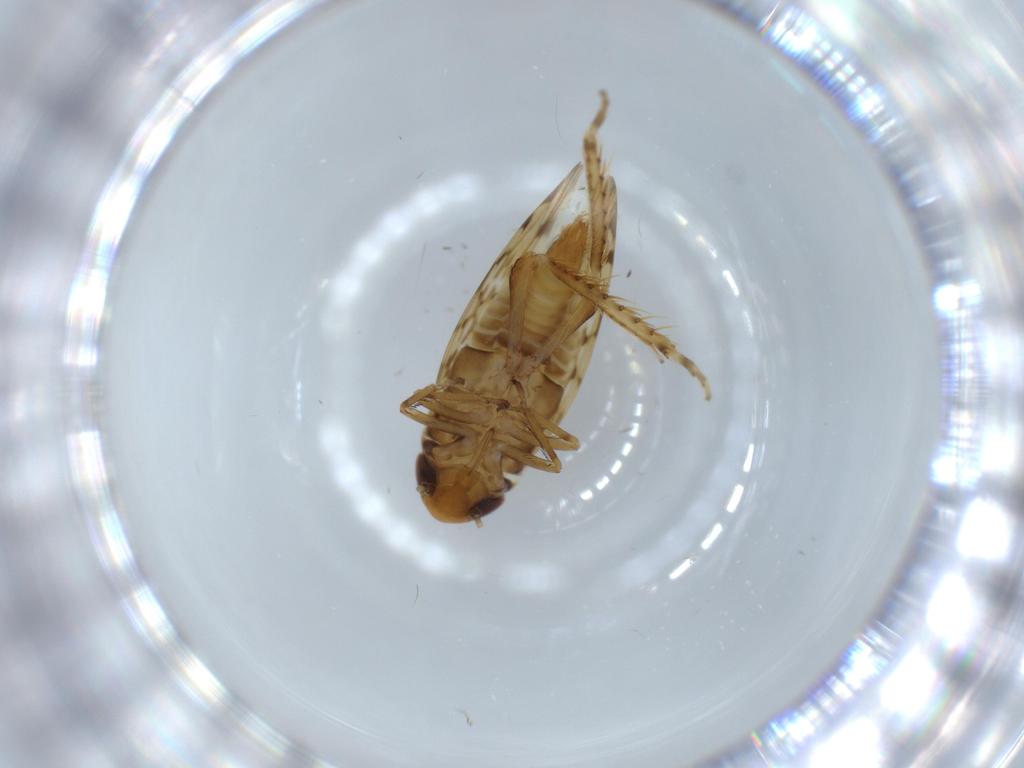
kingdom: Animalia
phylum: Arthropoda
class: Insecta
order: Hemiptera
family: Cicadellidae
